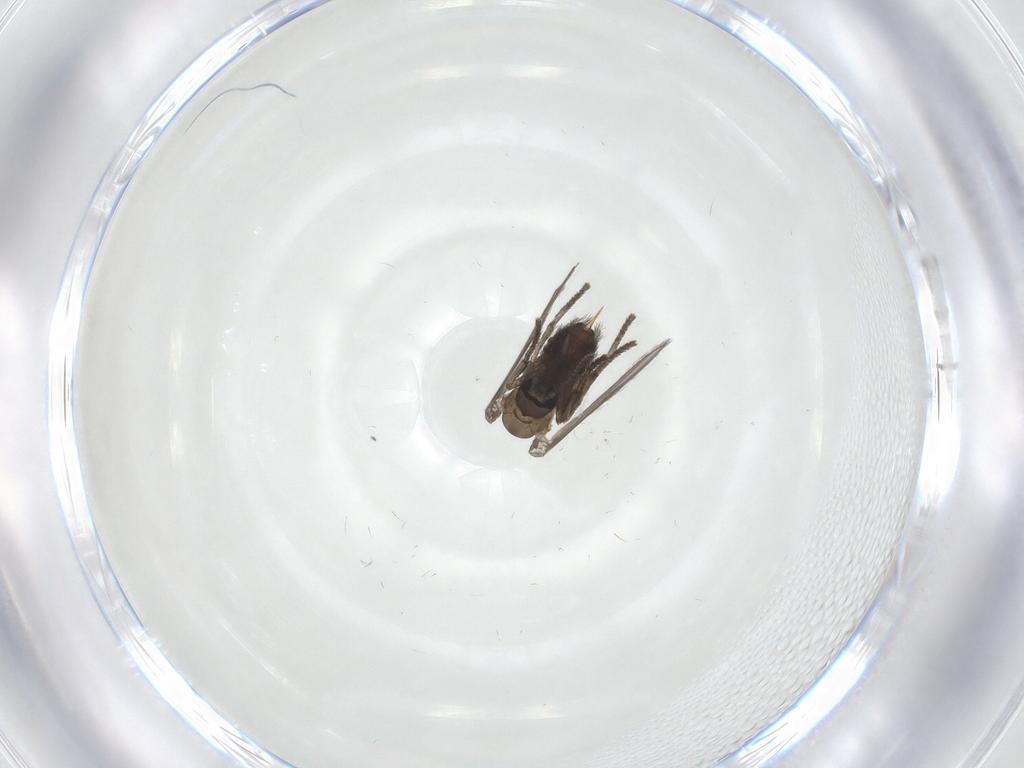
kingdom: Animalia
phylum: Arthropoda
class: Insecta
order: Diptera
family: Psychodidae
